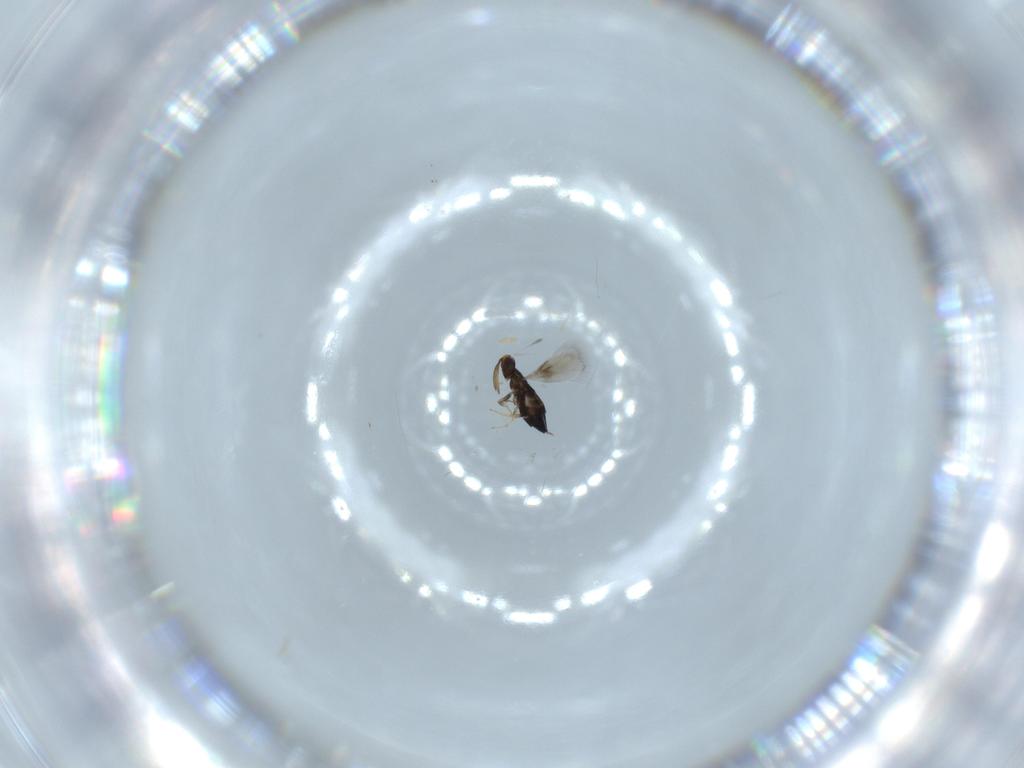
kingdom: Animalia
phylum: Arthropoda
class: Insecta
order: Hymenoptera
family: Signiphoridae
